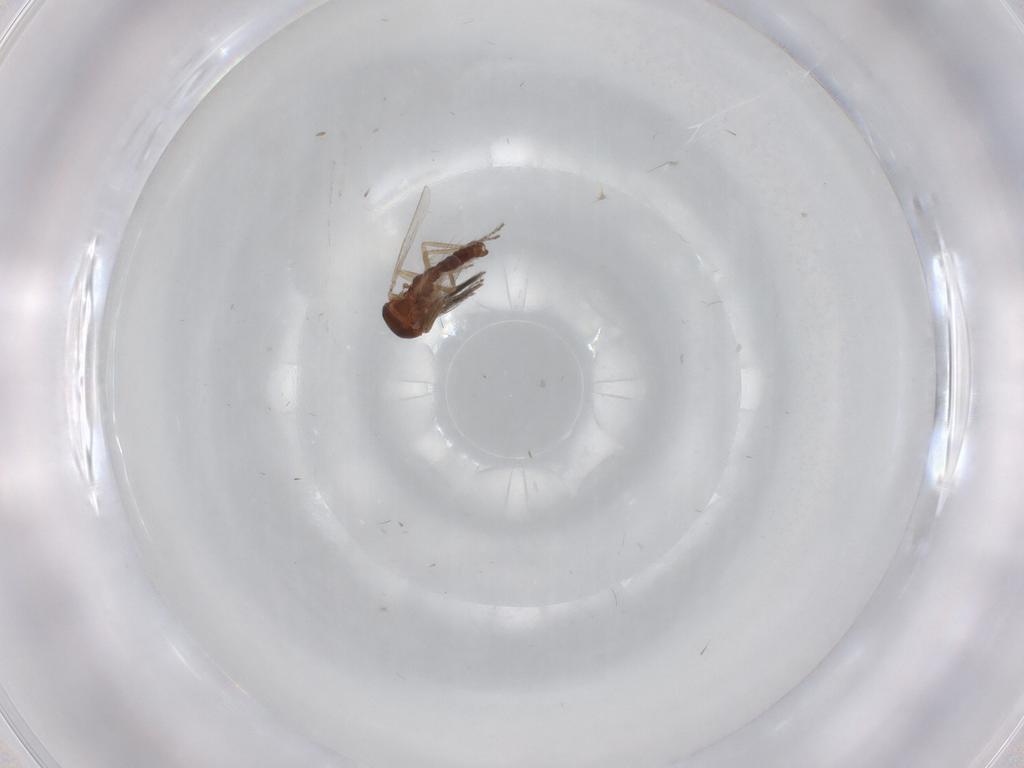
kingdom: Animalia
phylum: Arthropoda
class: Insecta
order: Diptera
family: Ceratopogonidae
